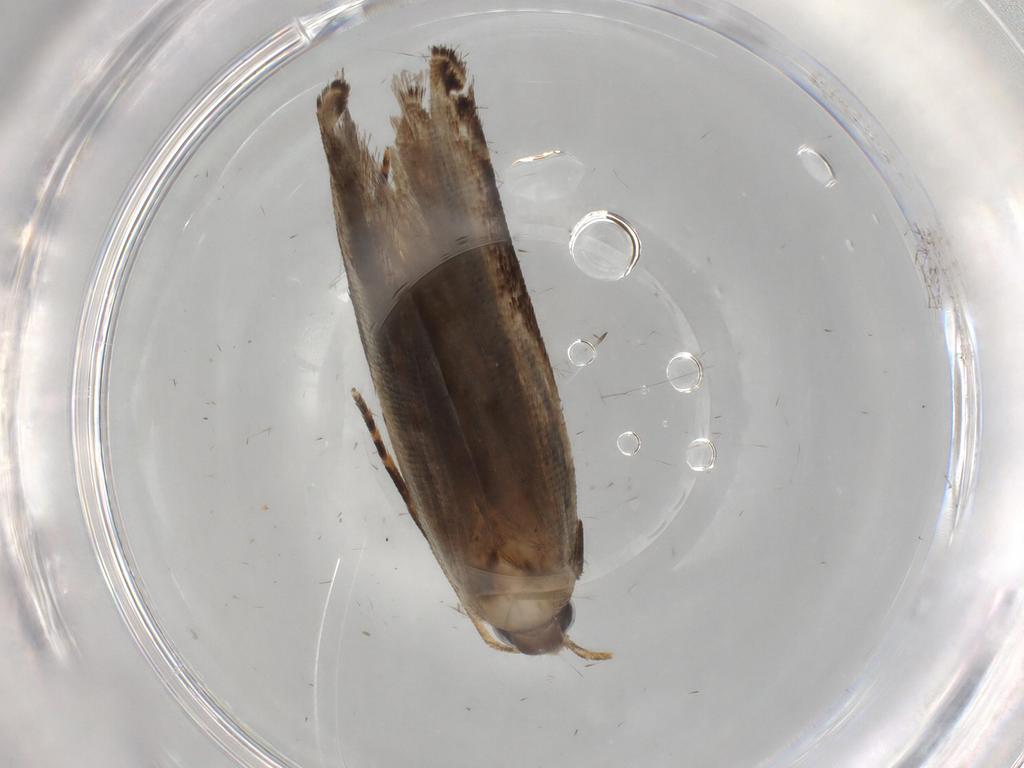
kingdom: Animalia
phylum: Arthropoda
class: Insecta
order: Lepidoptera
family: Gelechiidae
